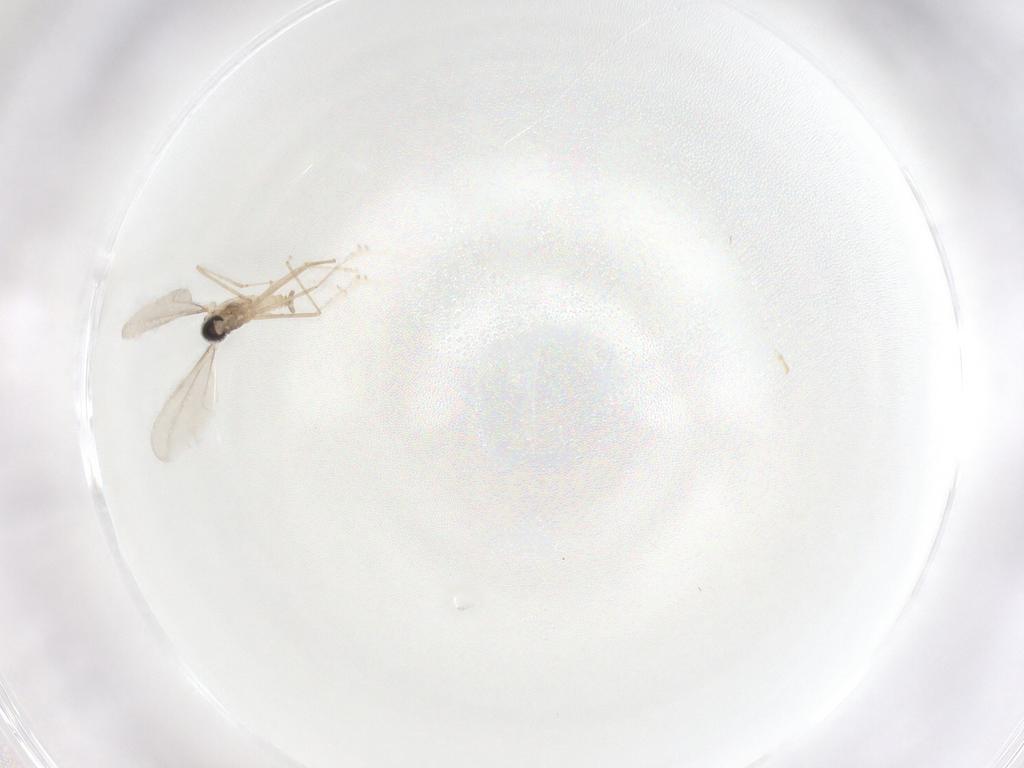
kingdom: Animalia
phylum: Arthropoda
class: Insecta
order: Diptera
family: Cecidomyiidae
